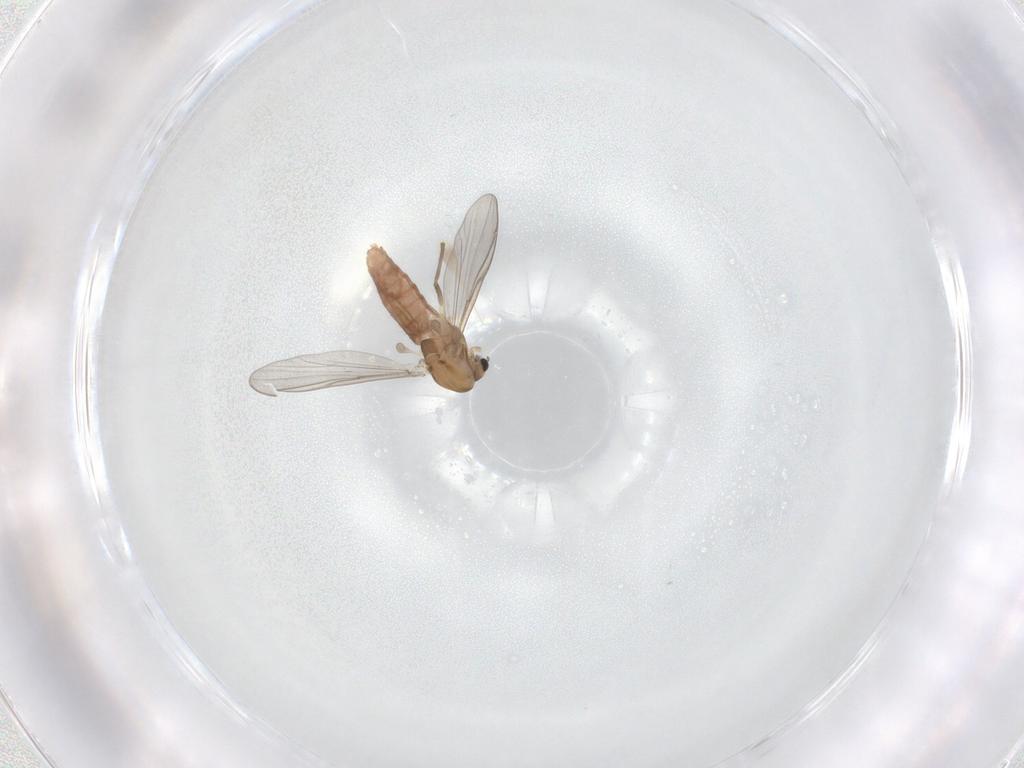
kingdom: Animalia
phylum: Arthropoda
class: Insecta
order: Diptera
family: Chironomidae
